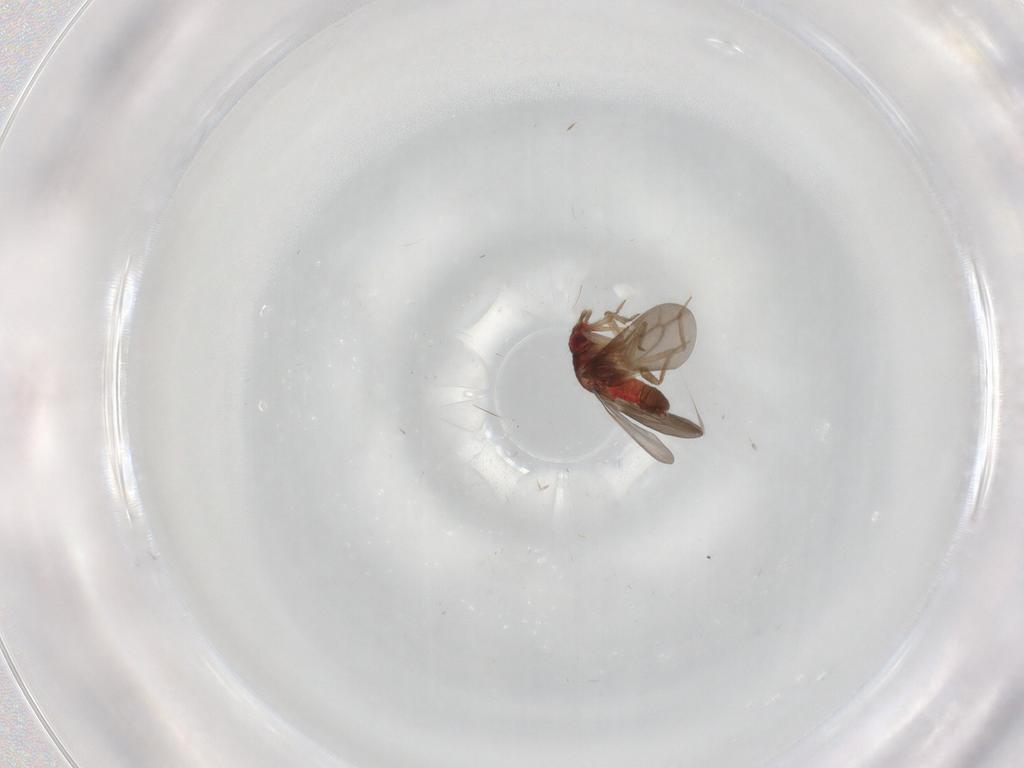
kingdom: Animalia
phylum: Arthropoda
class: Insecta
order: Hemiptera
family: Ceratocombidae
